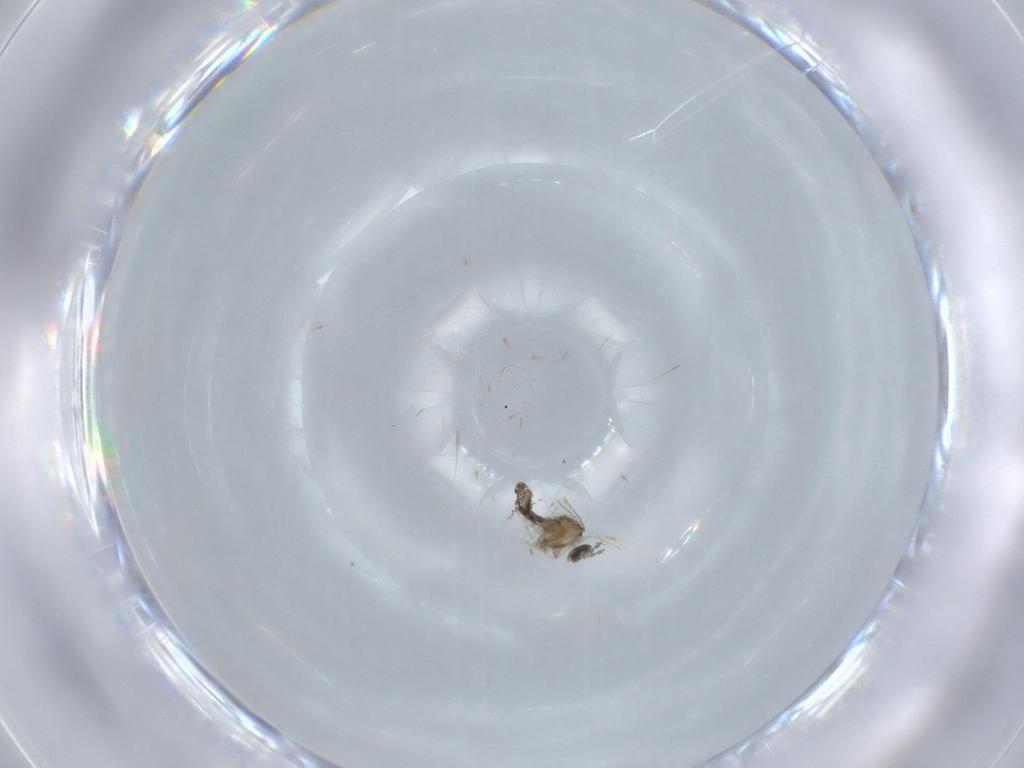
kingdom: Animalia
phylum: Arthropoda
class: Insecta
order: Diptera
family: Cecidomyiidae
